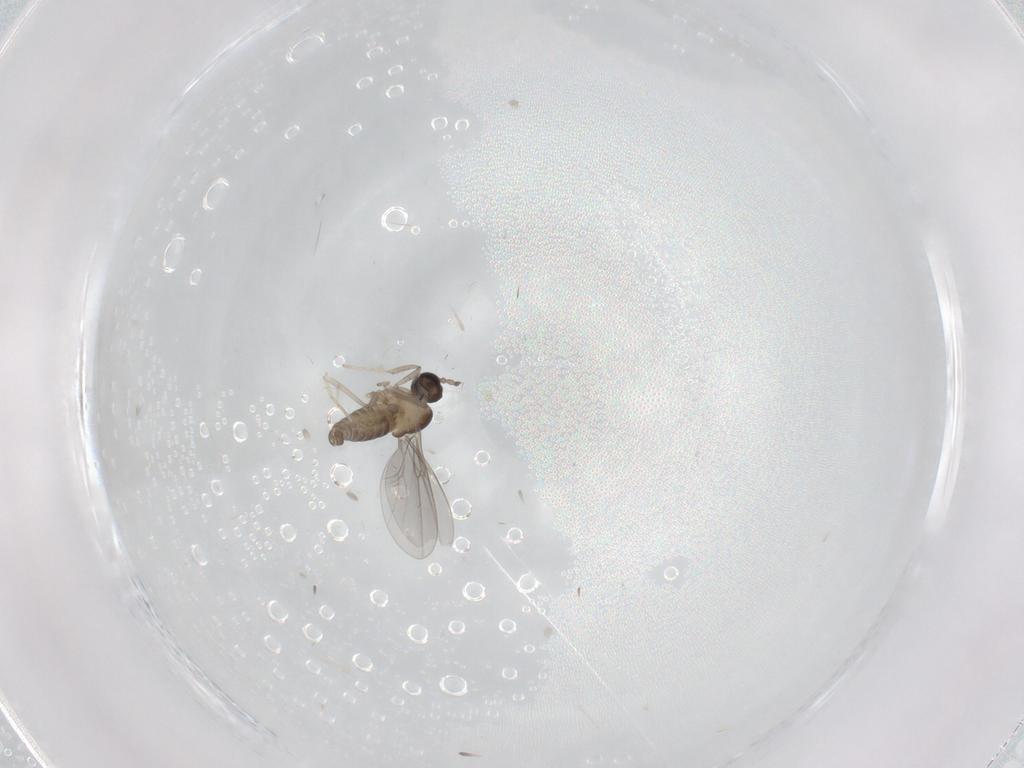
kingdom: Animalia
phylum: Arthropoda
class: Insecta
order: Diptera
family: Cecidomyiidae
